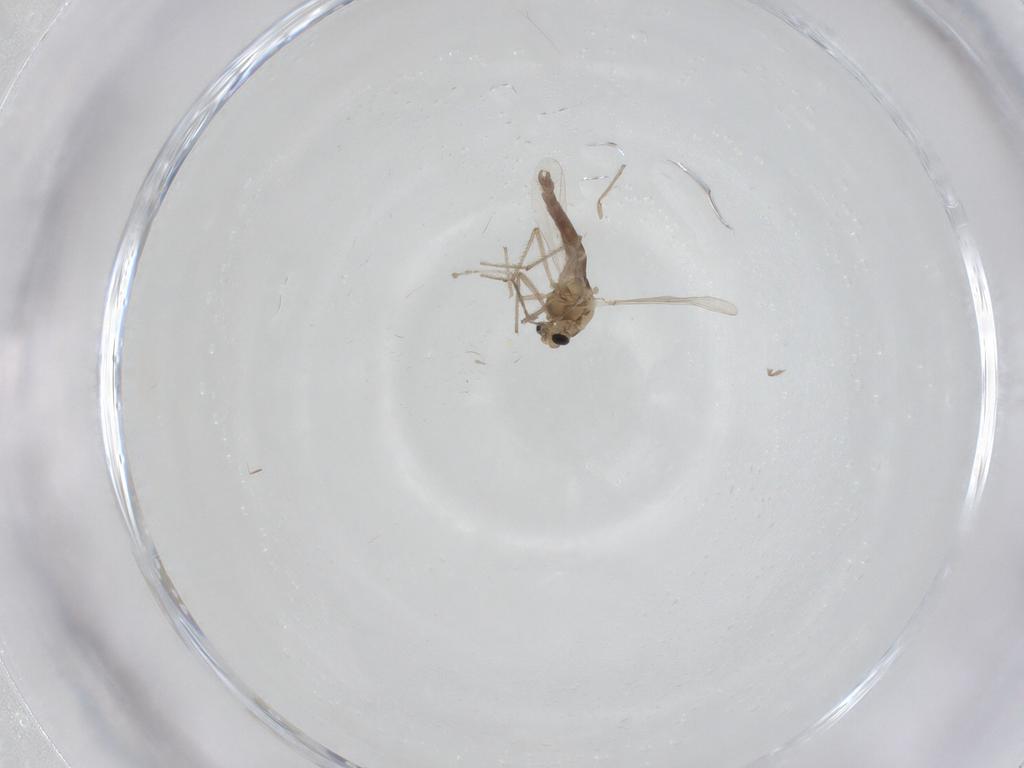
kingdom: Animalia
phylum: Arthropoda
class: Insecta
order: Diptera
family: Chironomidae
